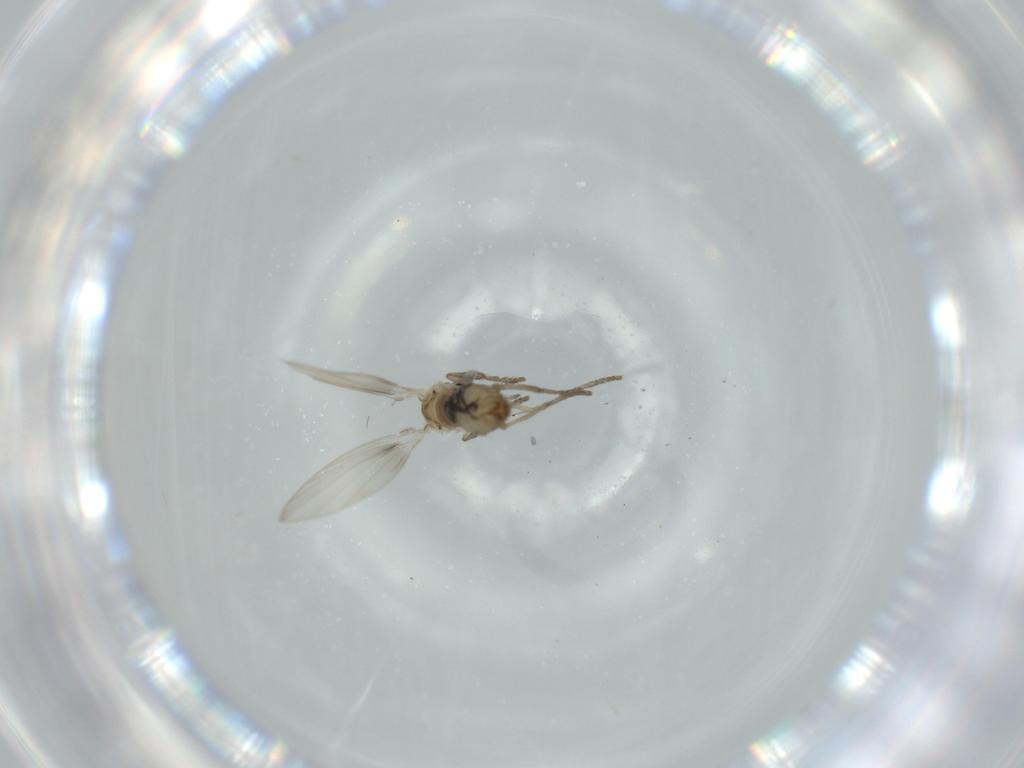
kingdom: Animalia
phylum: Arthropoda
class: Insecta
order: Diptera
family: Psychodidae
